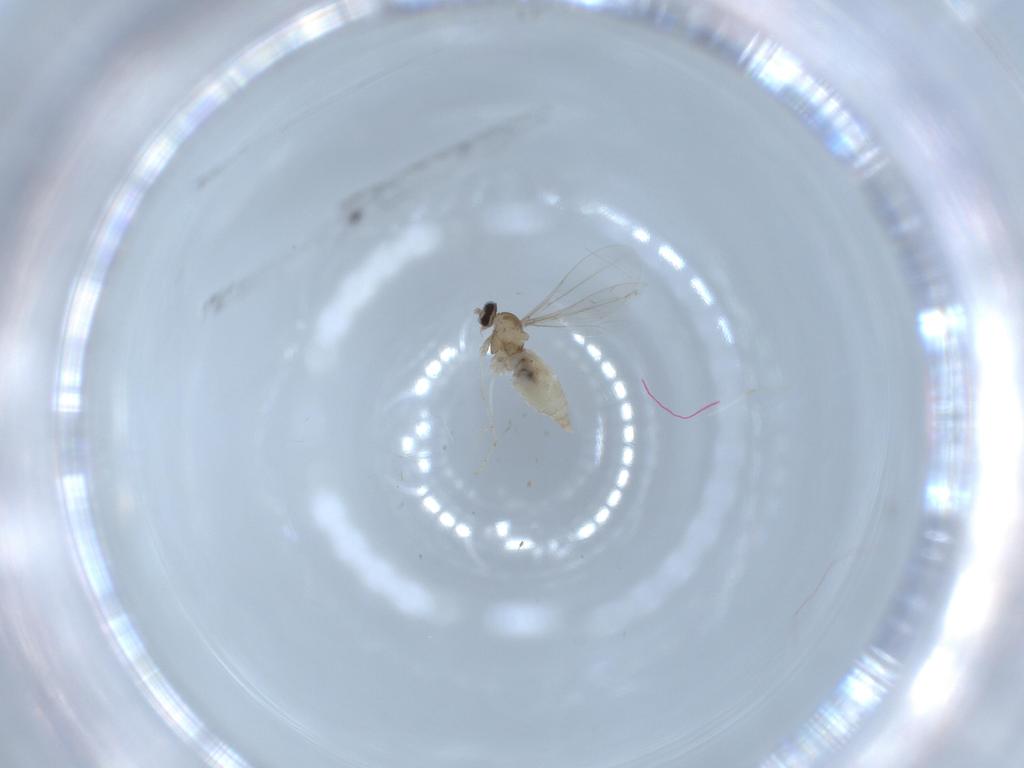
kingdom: Animalia
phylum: Arthropoda
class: Insecta
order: Diptera
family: Cecidomyiidae
